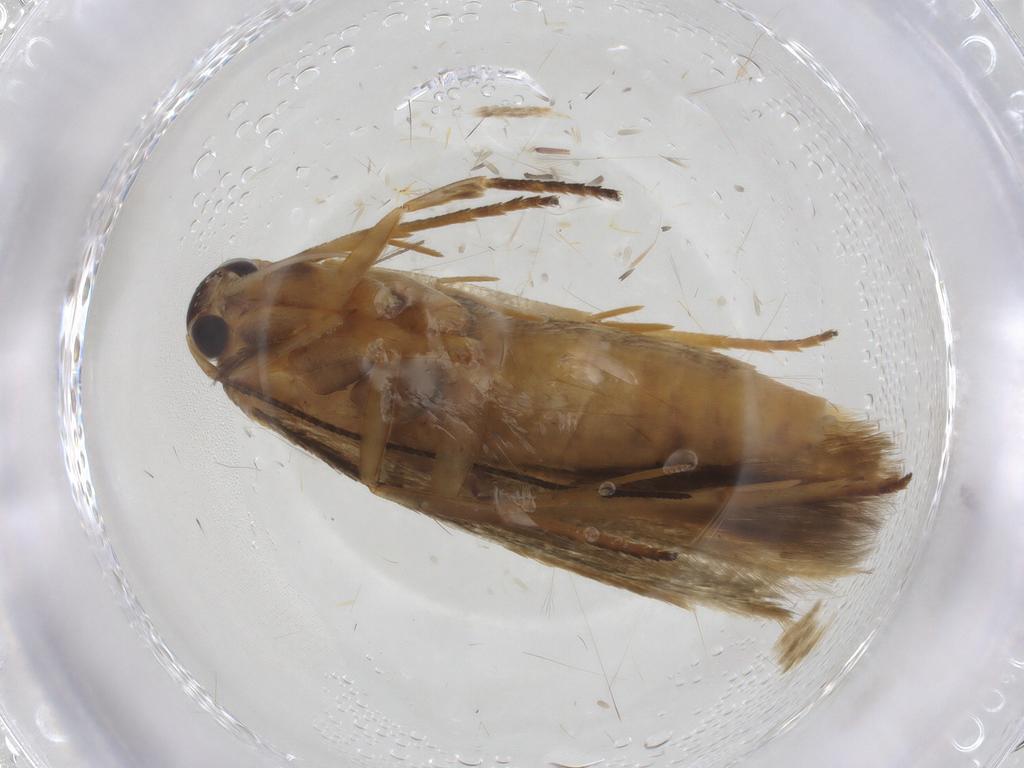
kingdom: Animalia
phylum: Arthropoda
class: Insecta
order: Lepidoptera
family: Stathmopodidae
